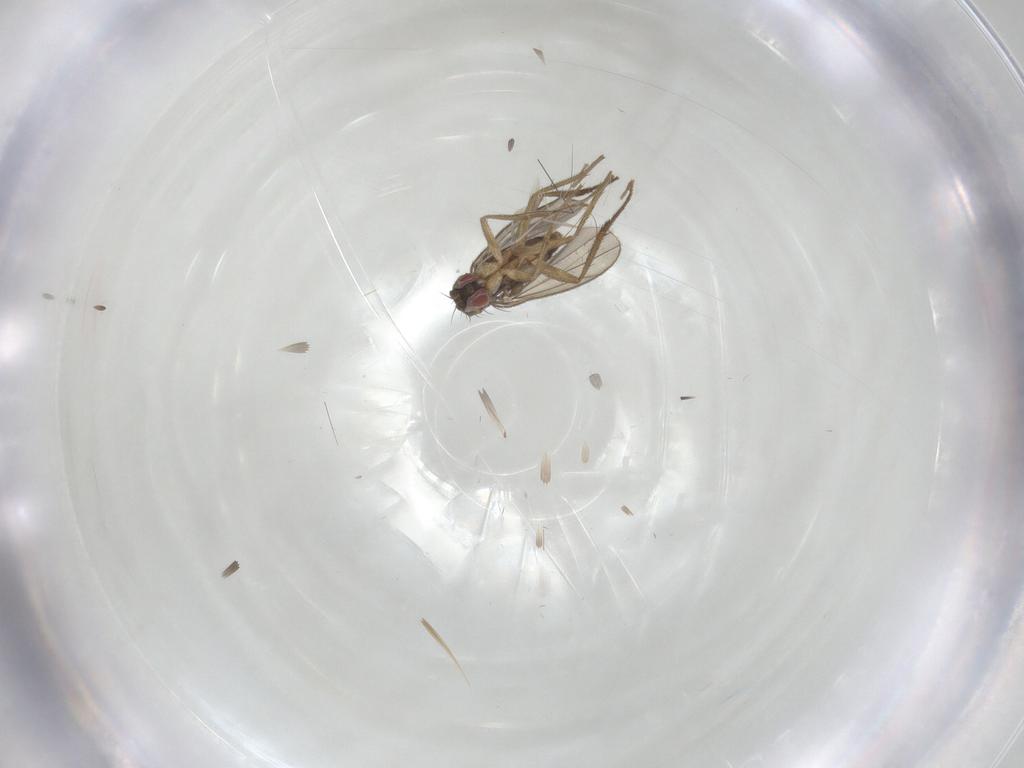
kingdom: Animalia
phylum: Arthropoda
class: Insecta
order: Diptera
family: Dolichopodidae
